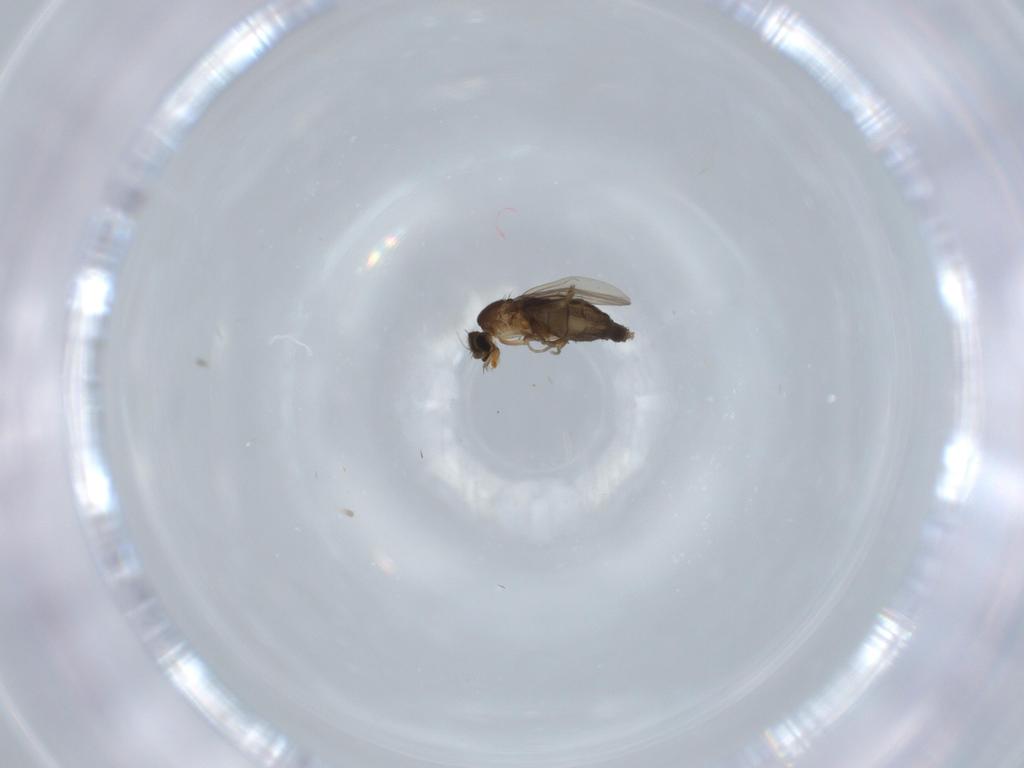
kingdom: Animalia
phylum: Arthropoda
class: Insecta
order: Diptera
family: Phoridae
